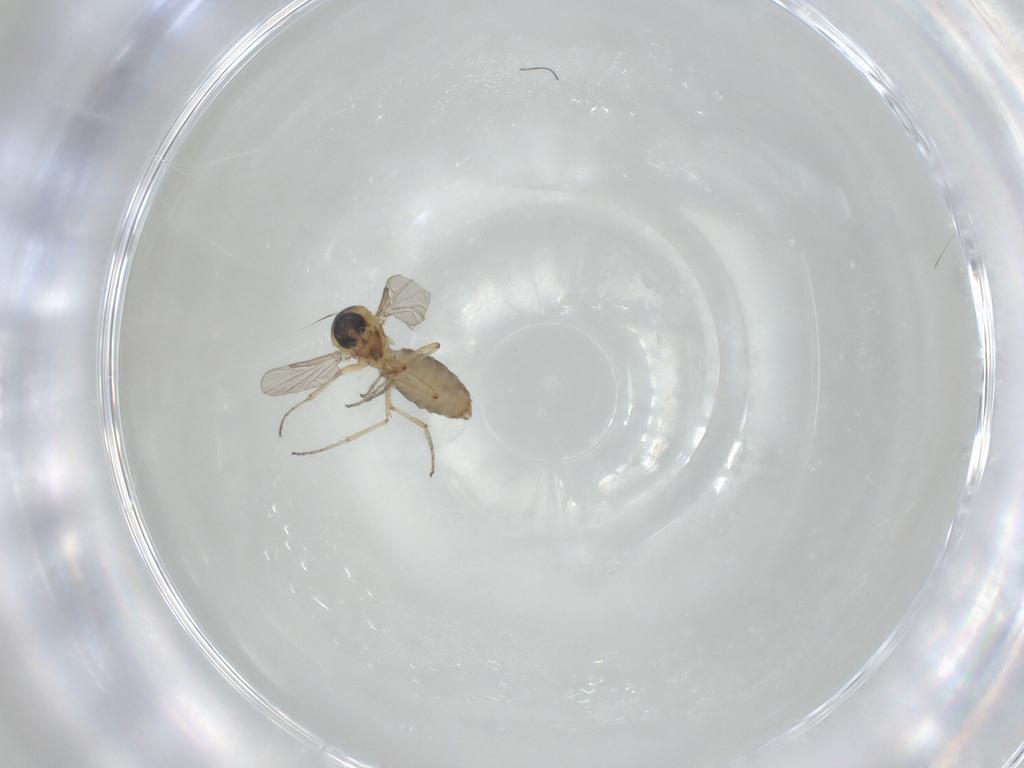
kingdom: Animalia
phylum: Arthropoda
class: Insecta
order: Diptera
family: Ceratopogonidae
